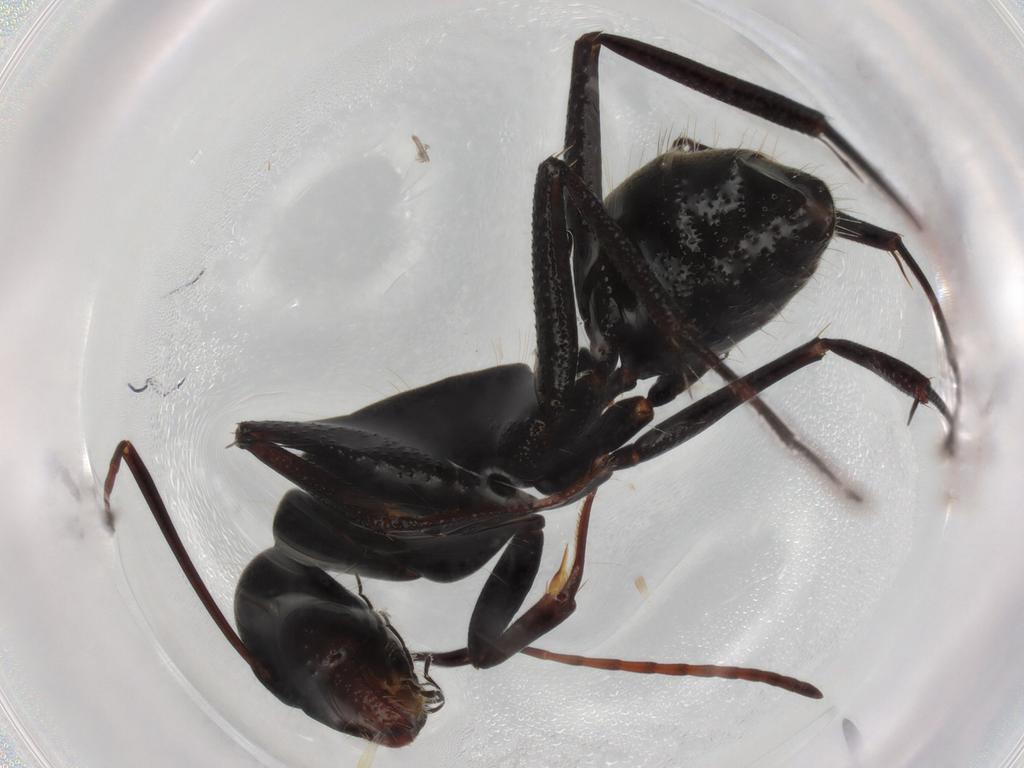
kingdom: Animalia
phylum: Arthropoda
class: Insecta
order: Hymenoptera
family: Formicidae
